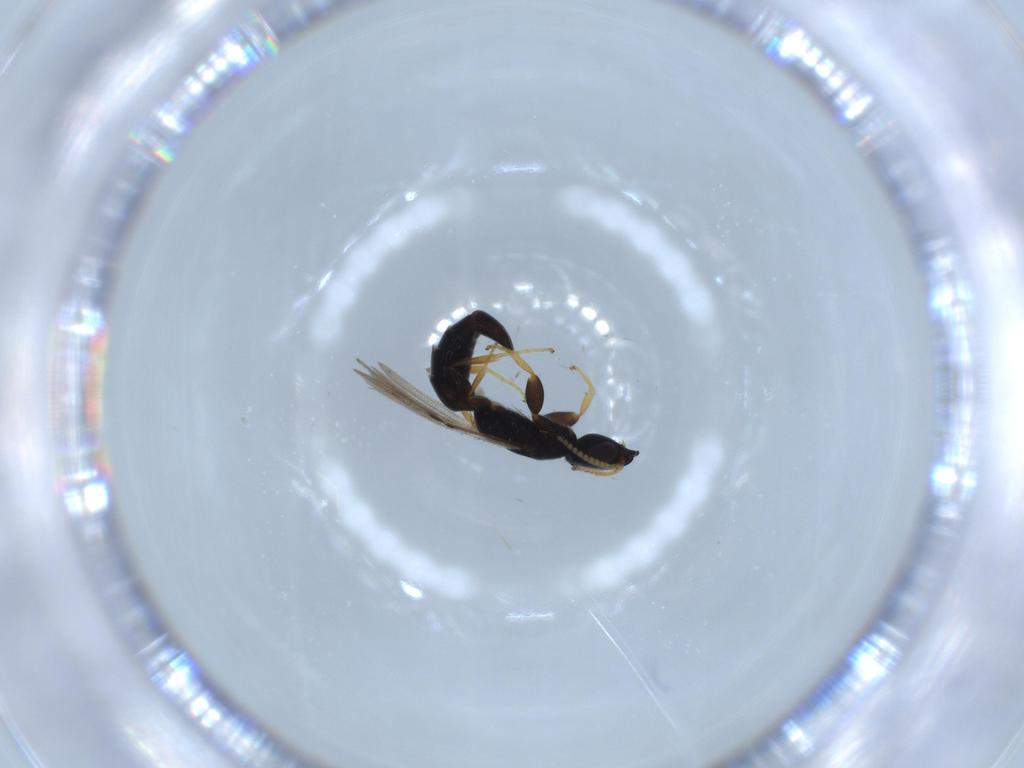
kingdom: Animalia
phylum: Arthropoda
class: Insecta
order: Hymenoptera
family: Bethylidae
